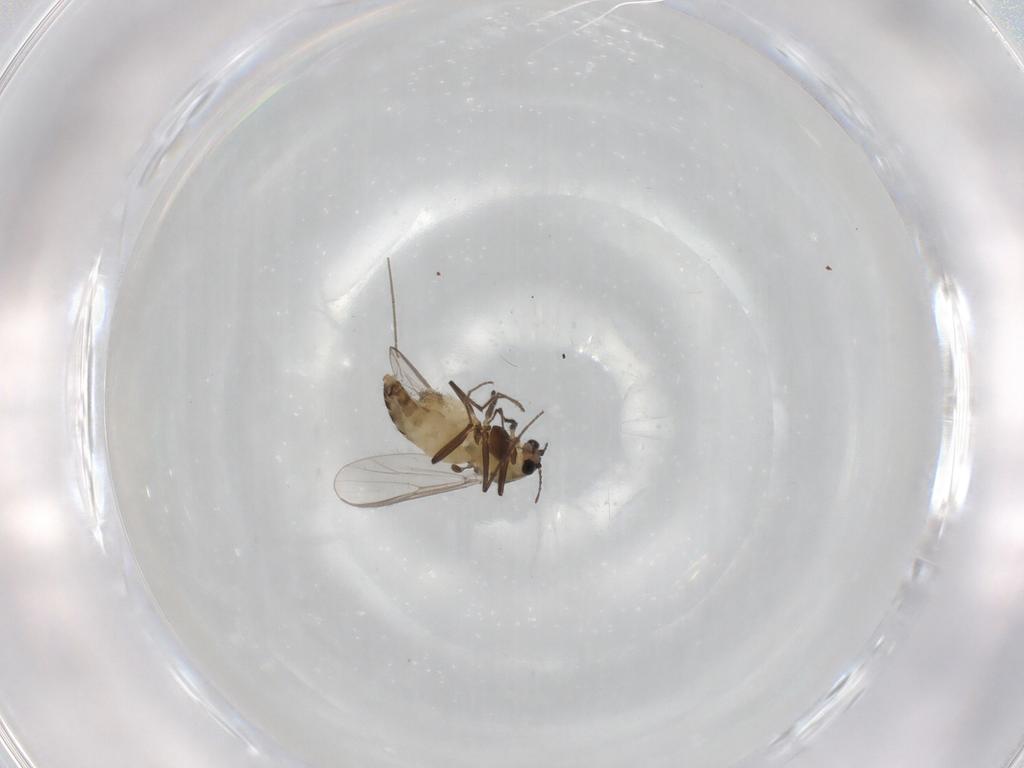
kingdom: Animalia
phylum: Arthropoda
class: Insecta
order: Diptera
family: Chironomidae
